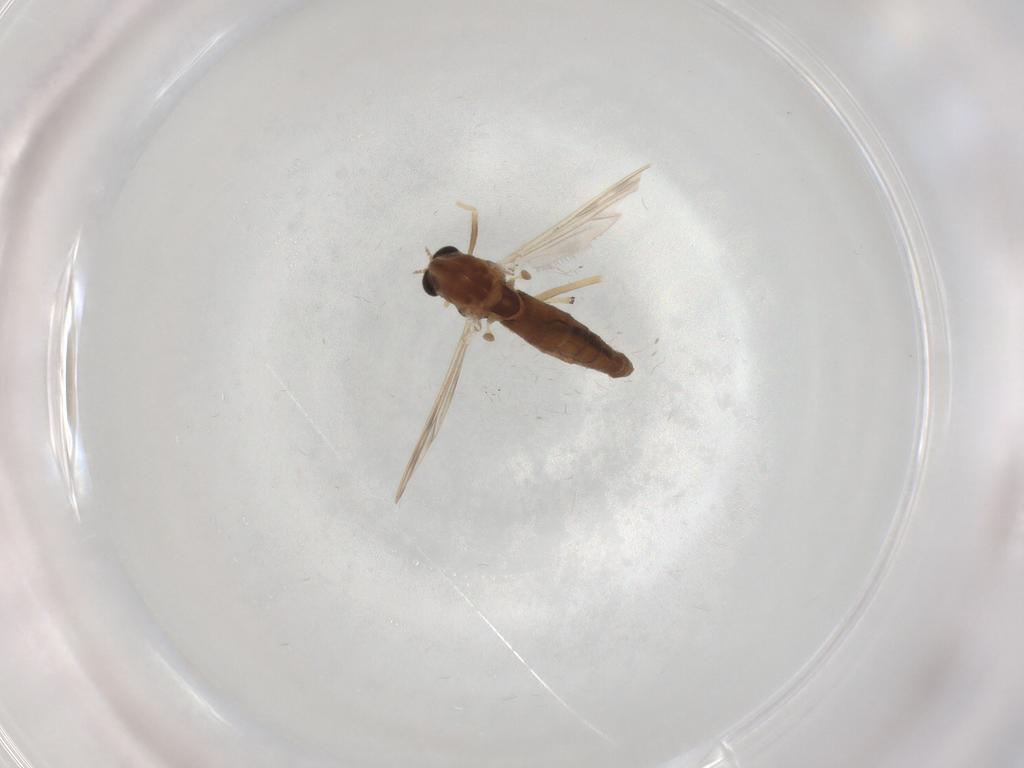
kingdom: Animalia
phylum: Arthropoda
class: Insecta
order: Diptera
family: Chironomidae
